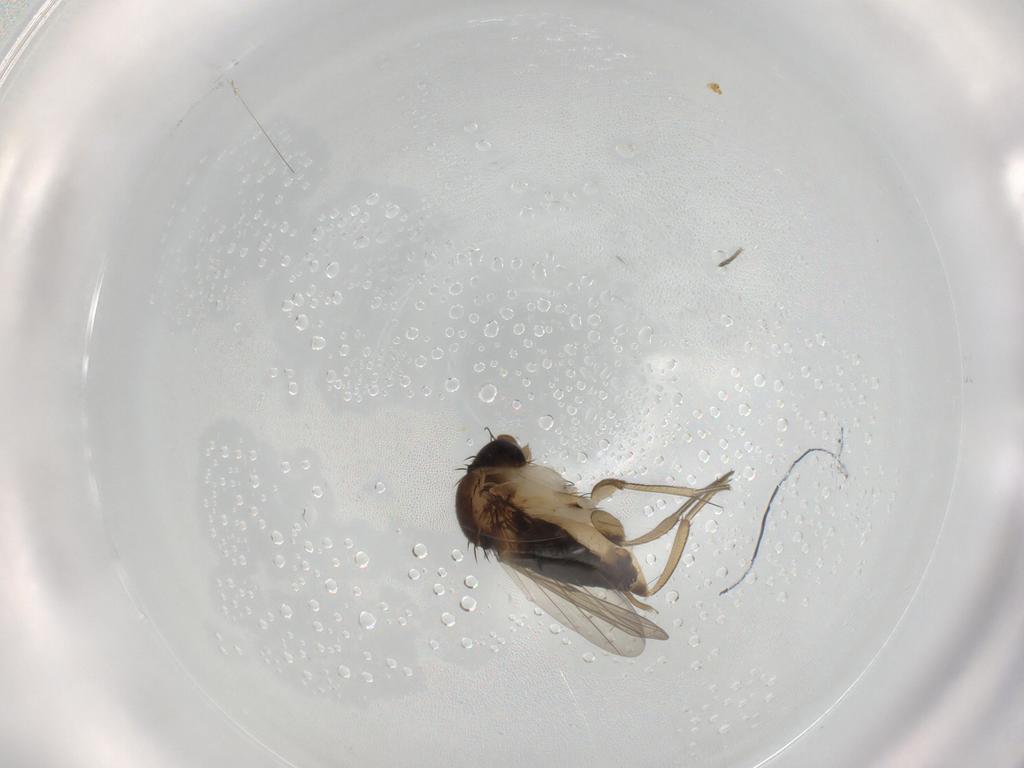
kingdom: Animalia
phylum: Arthropoda
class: Insecta
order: Diptera
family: Phoridae
